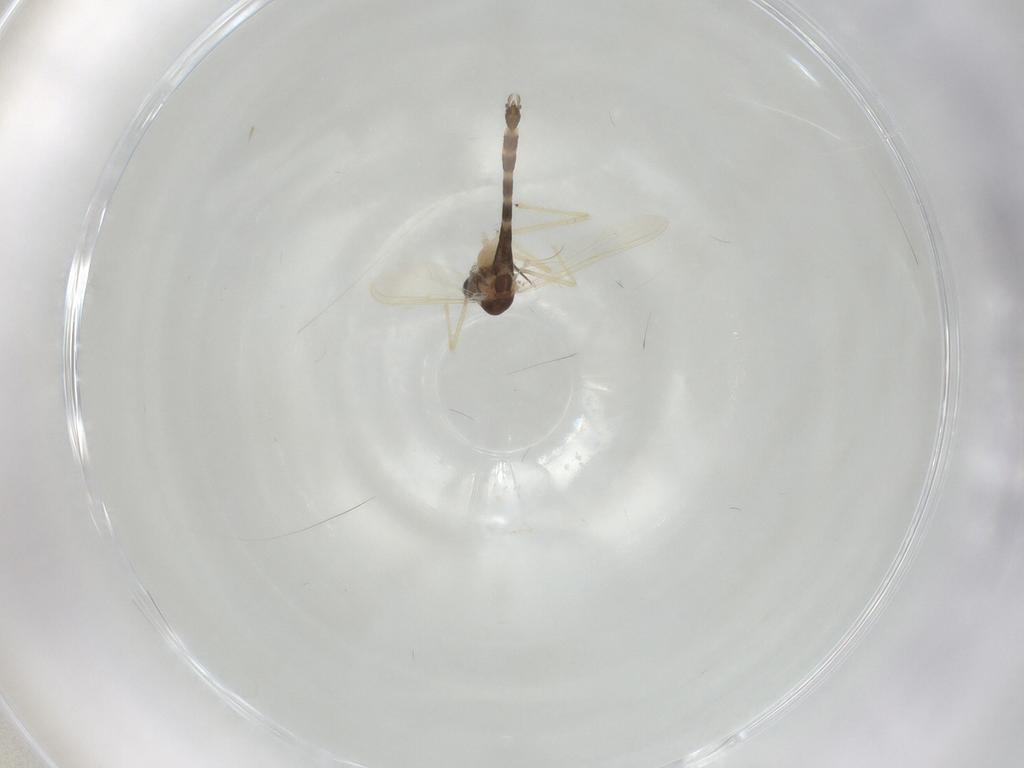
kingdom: Animalia
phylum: Arthropoda
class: Insecta
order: Diptera
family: Chironomidae
